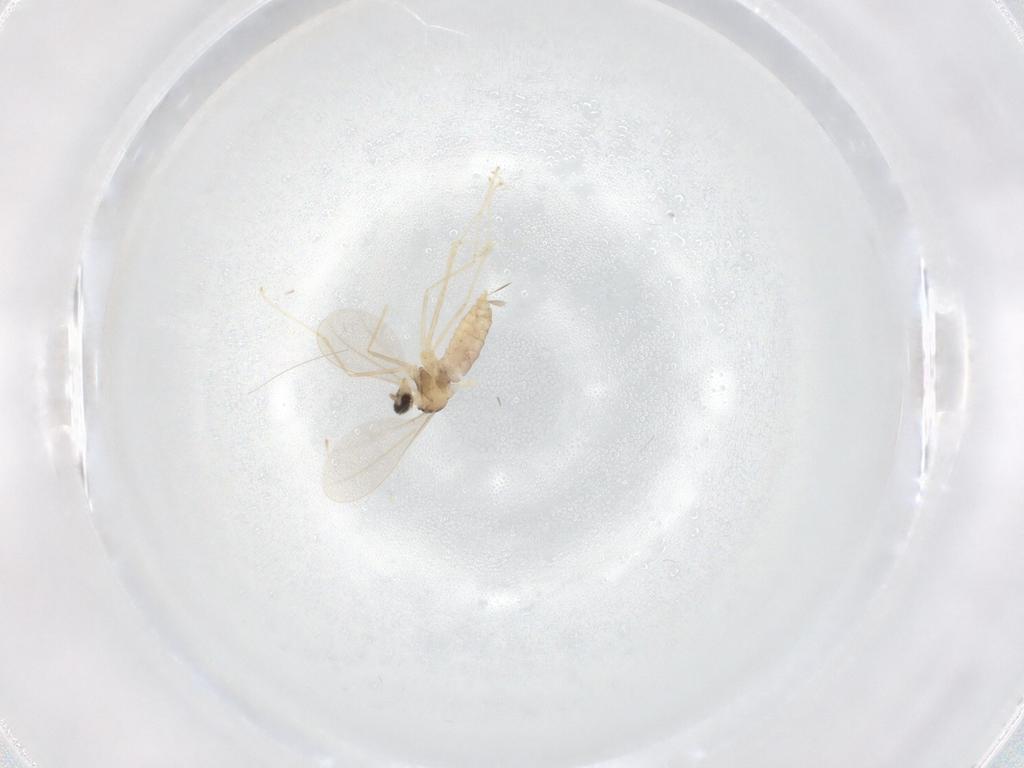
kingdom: Animalia
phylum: Arthropoda
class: Insecta
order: Diptera
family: Cecidomyiidae
